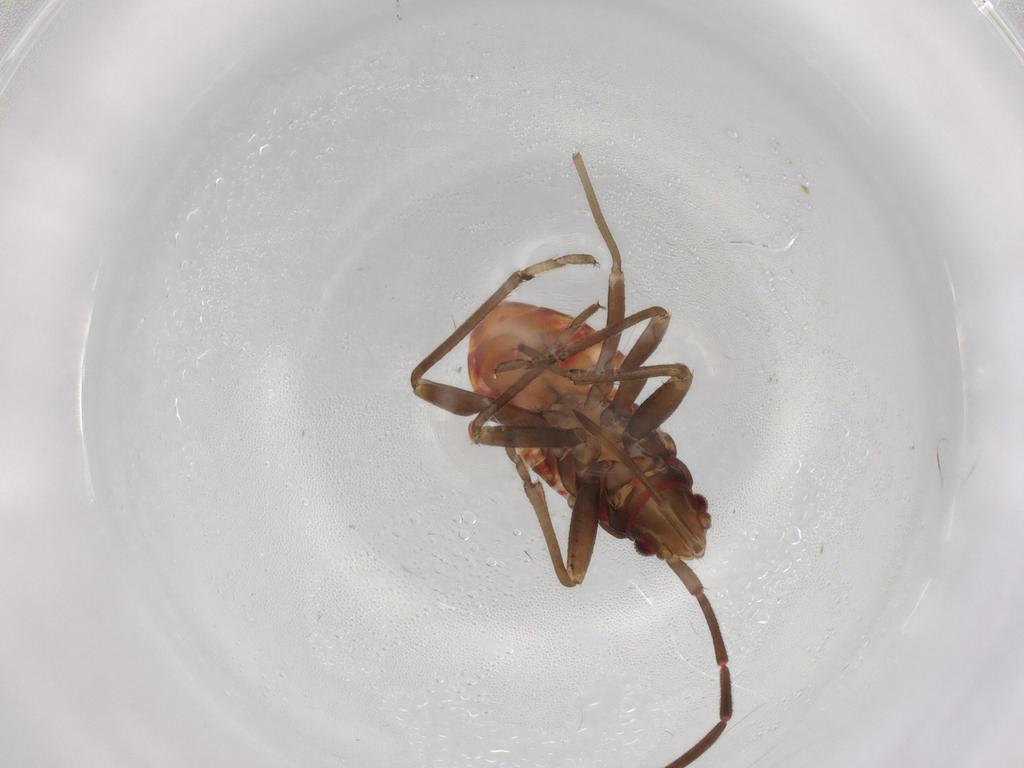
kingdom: Animalia
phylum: Arthropoda
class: Insecta
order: Hemiptera
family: Rhyparochromidae
